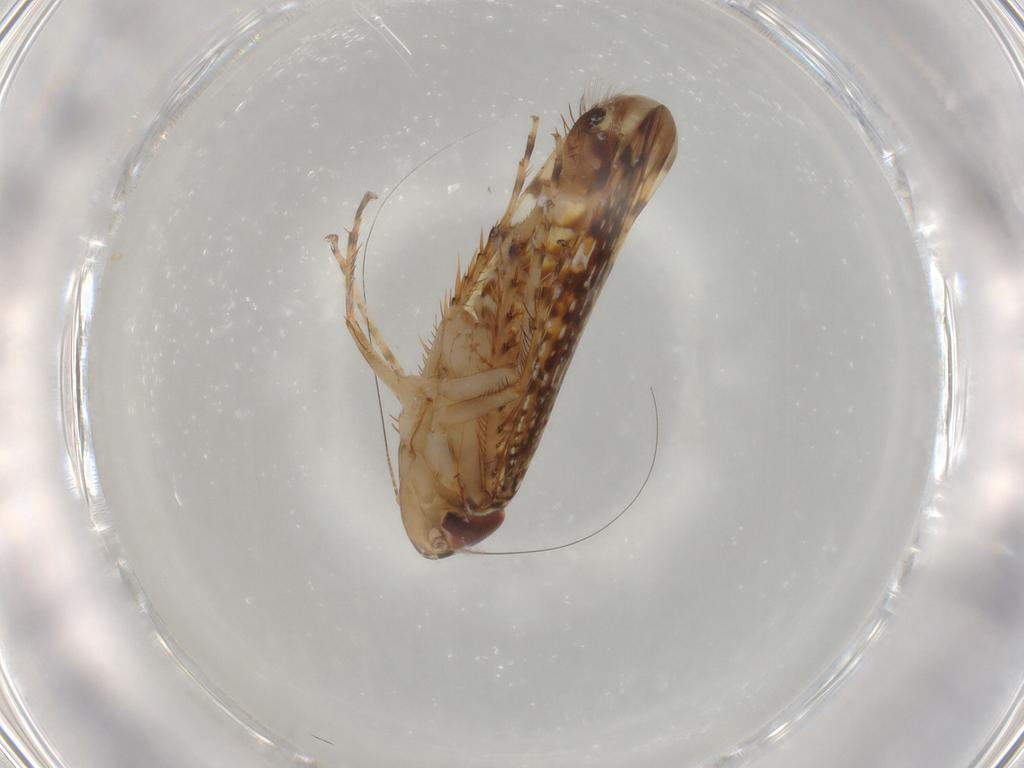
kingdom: Animalia
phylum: Arthropoda
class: Insecta
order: Hemiptera
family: Cicadellidae
